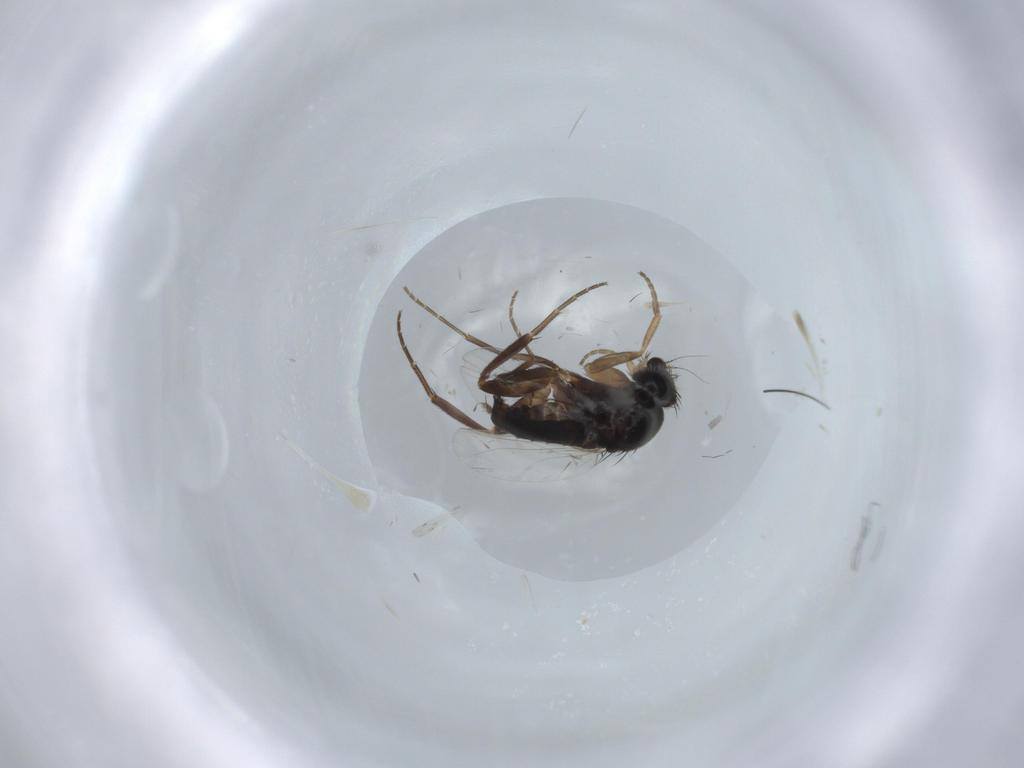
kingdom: Animalia
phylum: Arthropoda
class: Insecta
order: Diptera
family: Phoridae
